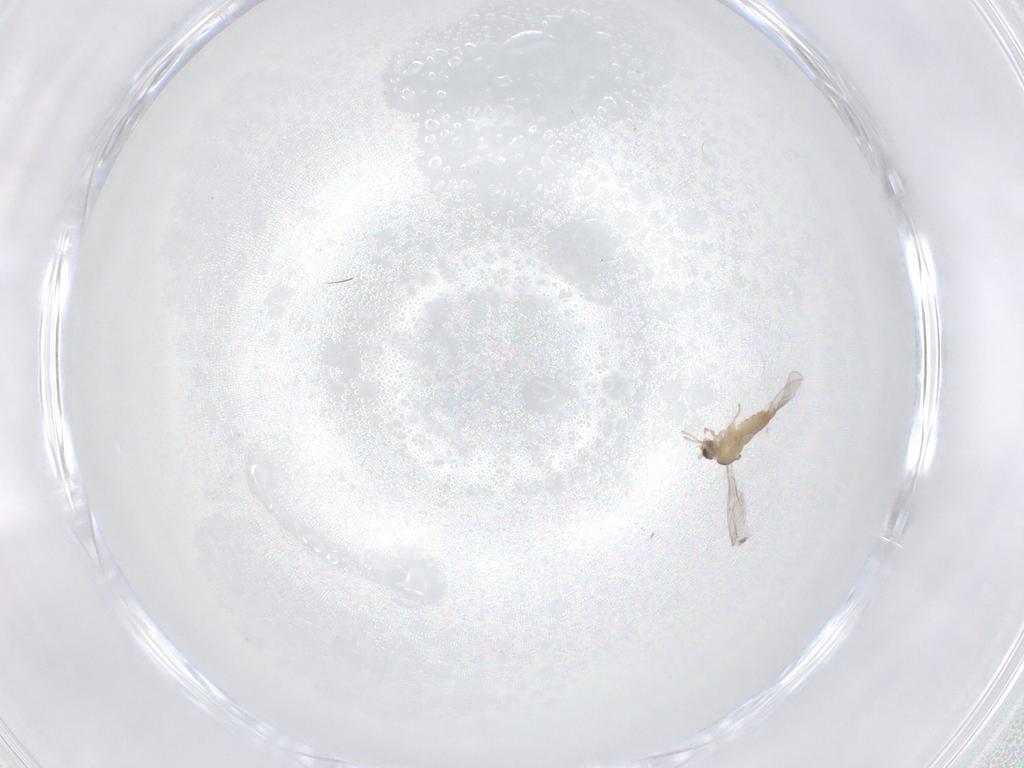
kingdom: Animalia
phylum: Arthropoda
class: Insecta
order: Diptera
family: Cecidomyiidae
